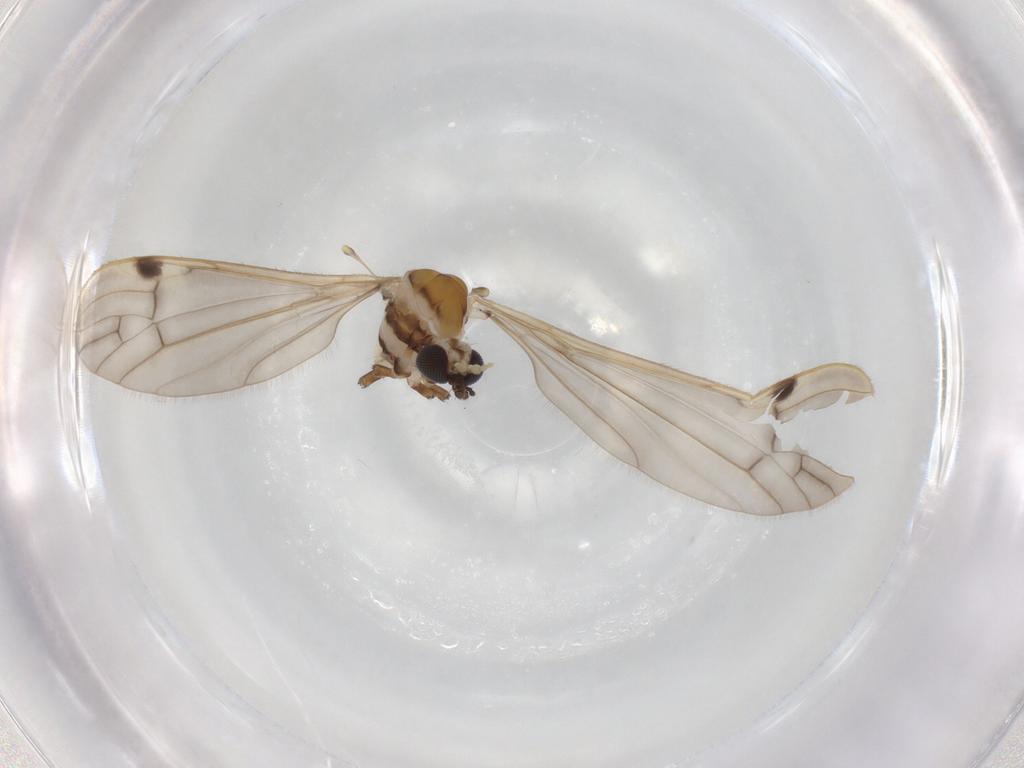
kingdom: Animalia
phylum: Arthropoda
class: Insecta
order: Diptera
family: Limoniidae
